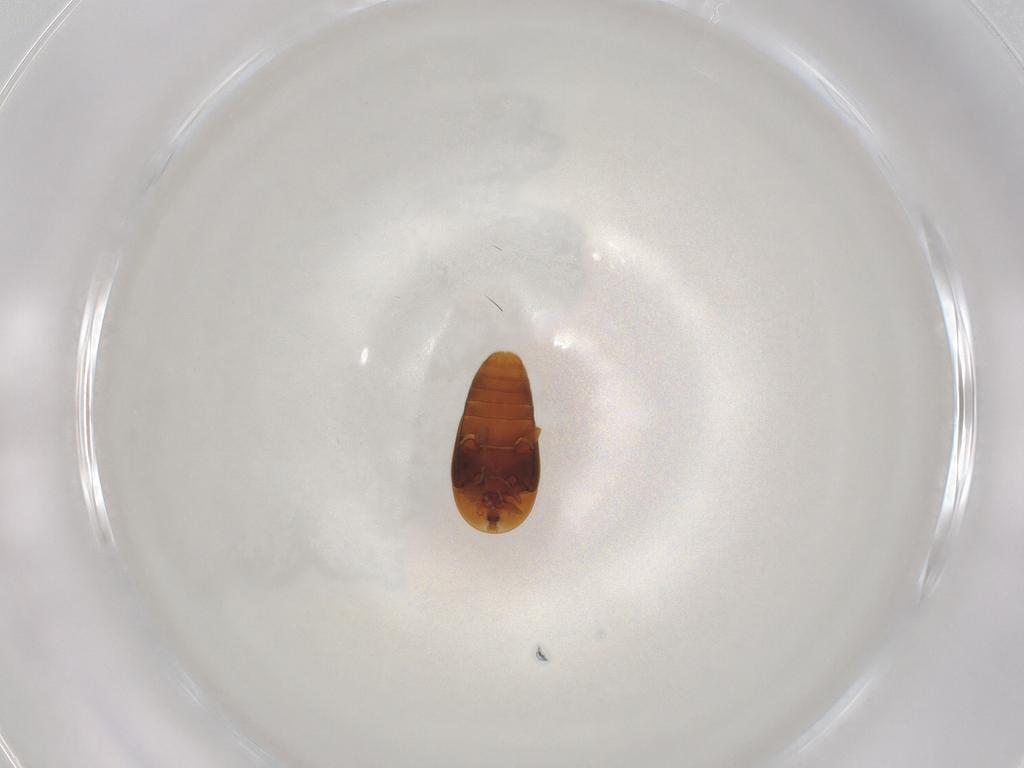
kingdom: Animalia
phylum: Arthropoda
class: Insecta
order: Coleoptera
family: Corylophidae
